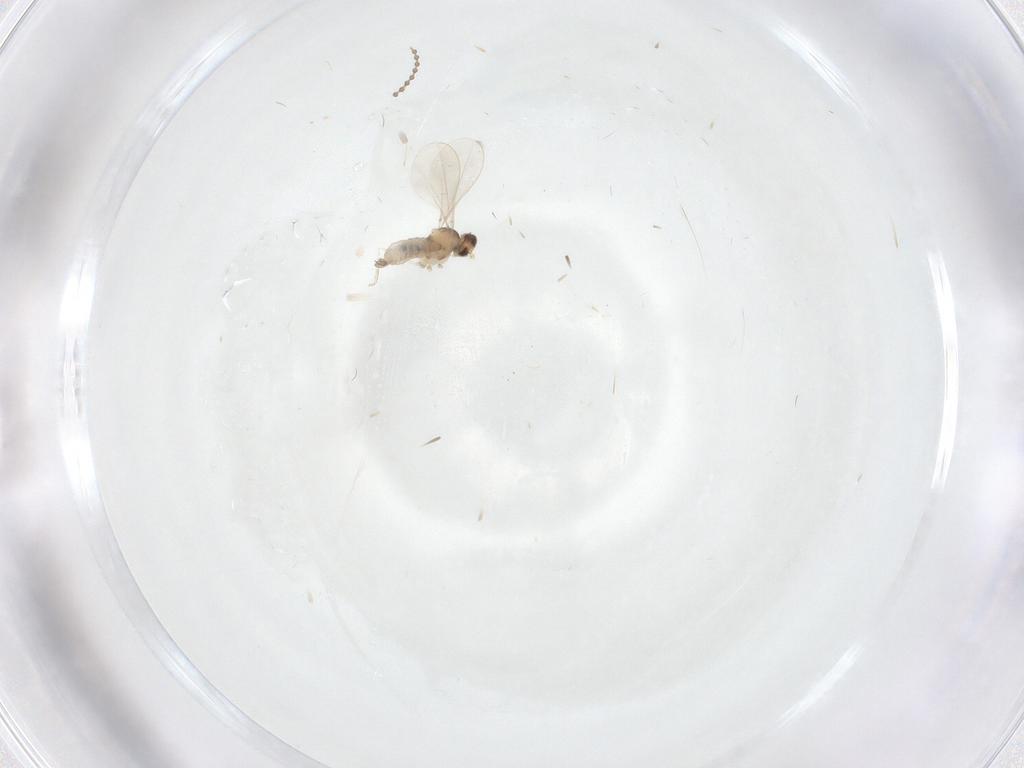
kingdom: Animalia
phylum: Arthropoda
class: Insecta
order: Diptera
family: Cecidomyiidae
